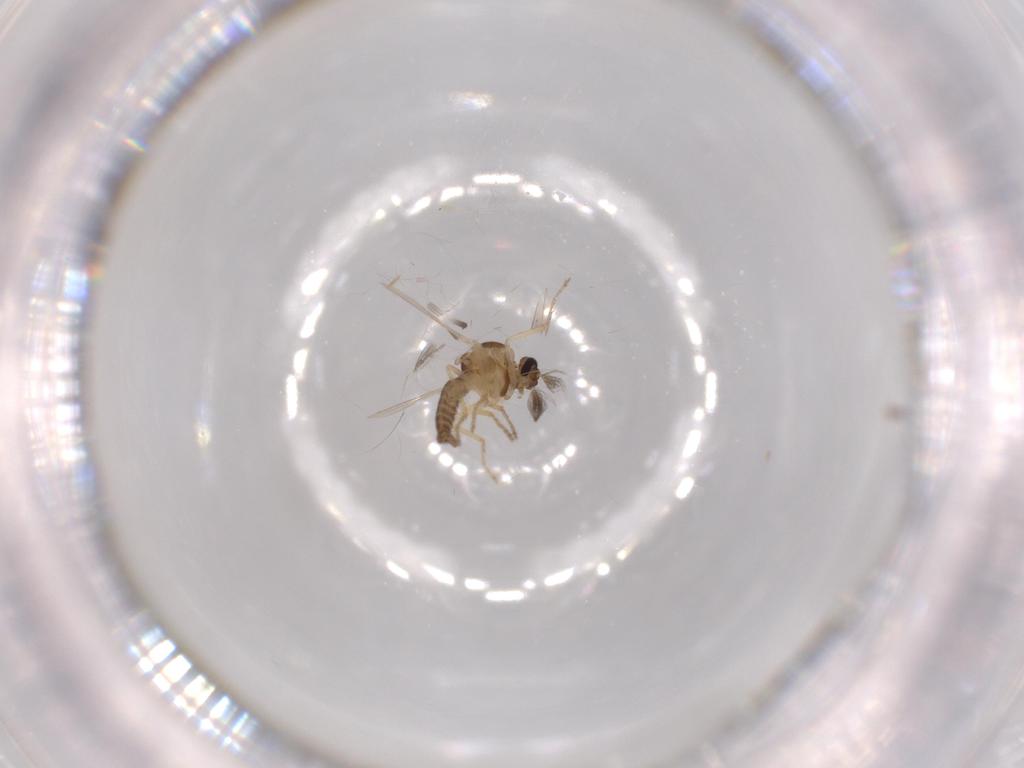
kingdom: Animalia
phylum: Arthropoda
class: Insecta
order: Diptera
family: Ceratopogonidae
